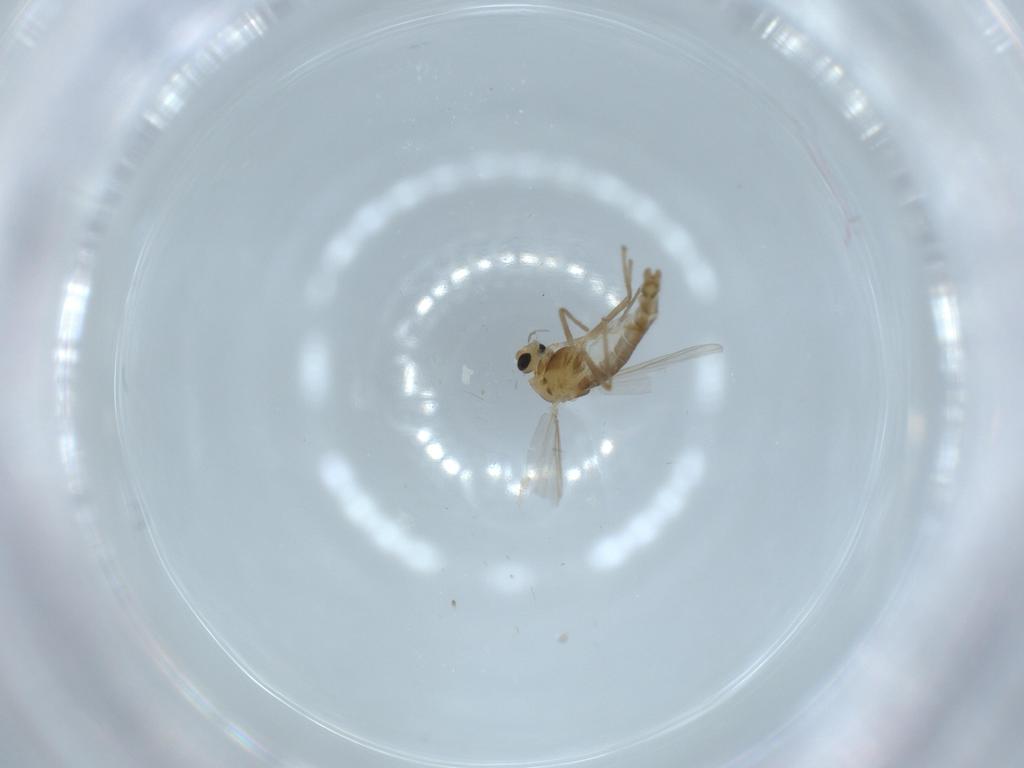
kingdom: Animalia
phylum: Arthropoda
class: Insecta
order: Diptera
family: Chironomidae
